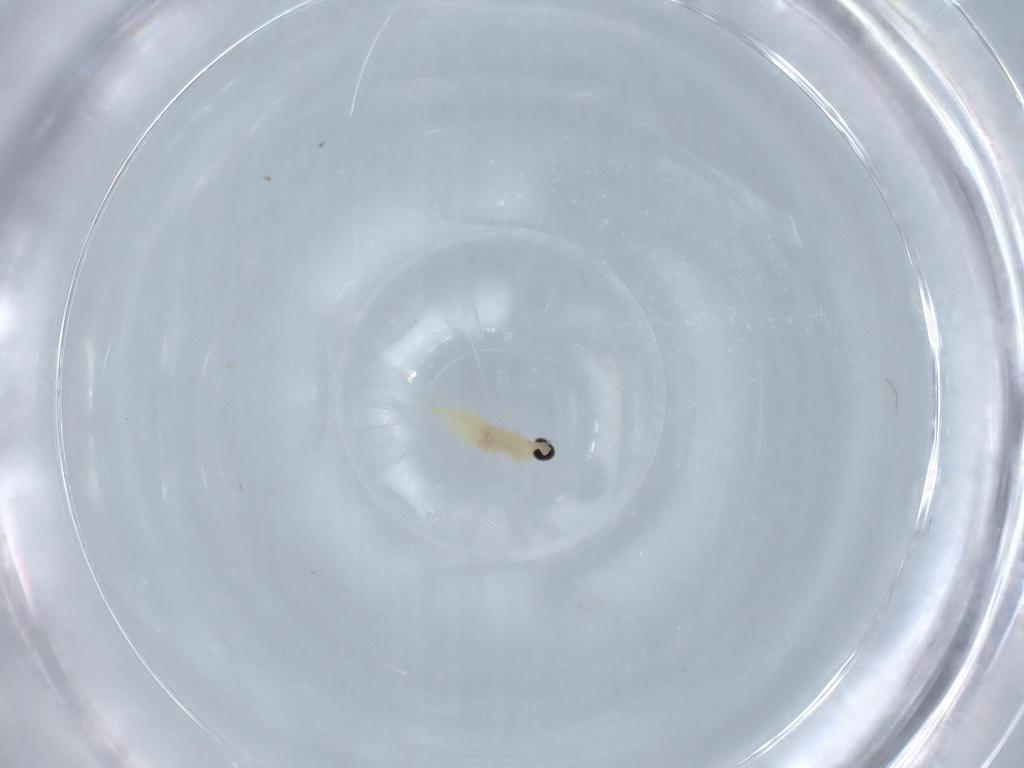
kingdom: Animalia
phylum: Arthropoda
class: Insecta
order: Diptera
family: Cecidomyiidae
